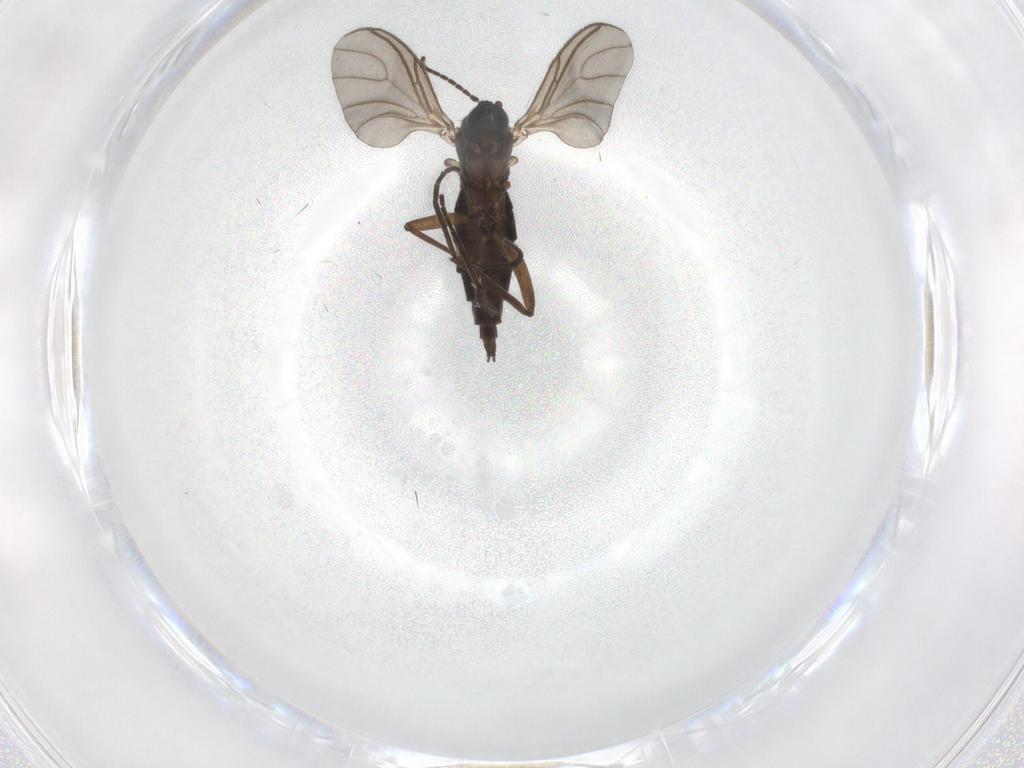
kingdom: Animalia
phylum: Arthropoda
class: Insecta
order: Diptera
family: Sciaridae
